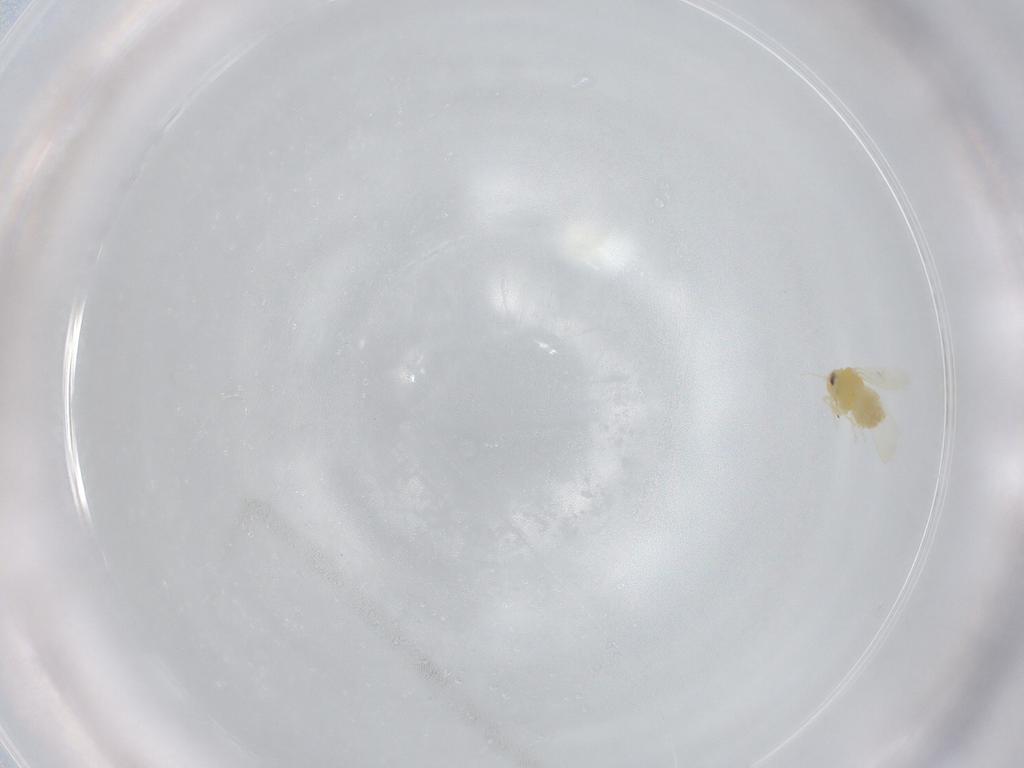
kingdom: Animalia
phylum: Arthropoda
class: Insecta
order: Hemiptera
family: Aleyrodidae
